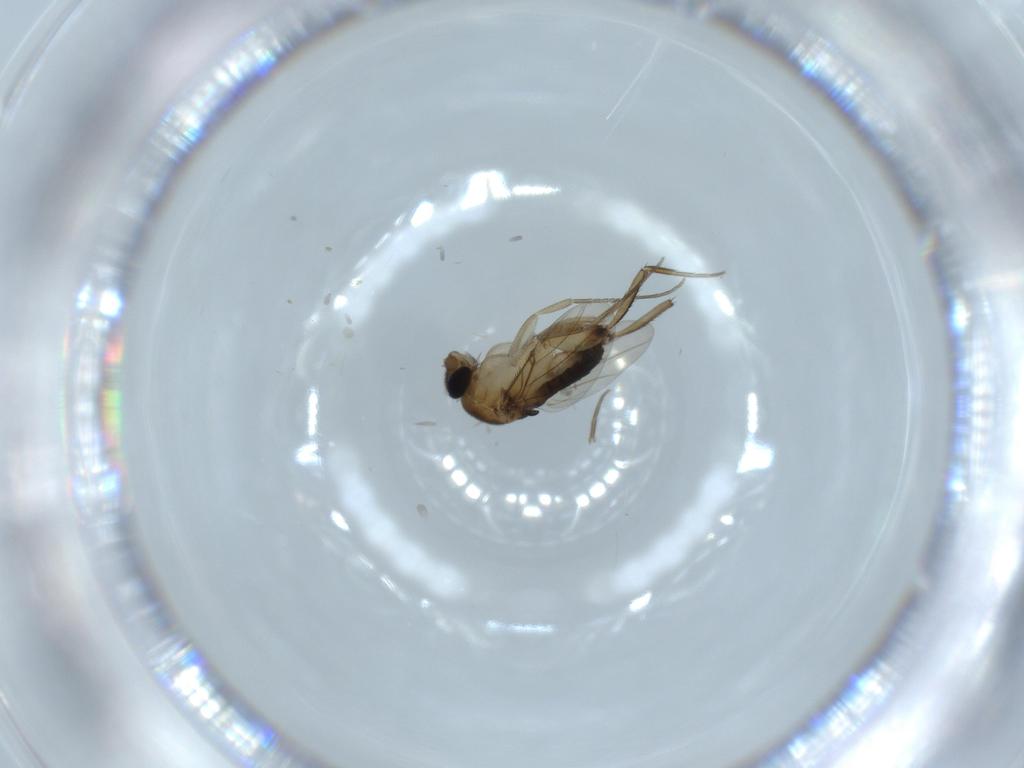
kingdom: Animalia
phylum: Arthropoda
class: Insecta
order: Diptera
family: Phoridae
